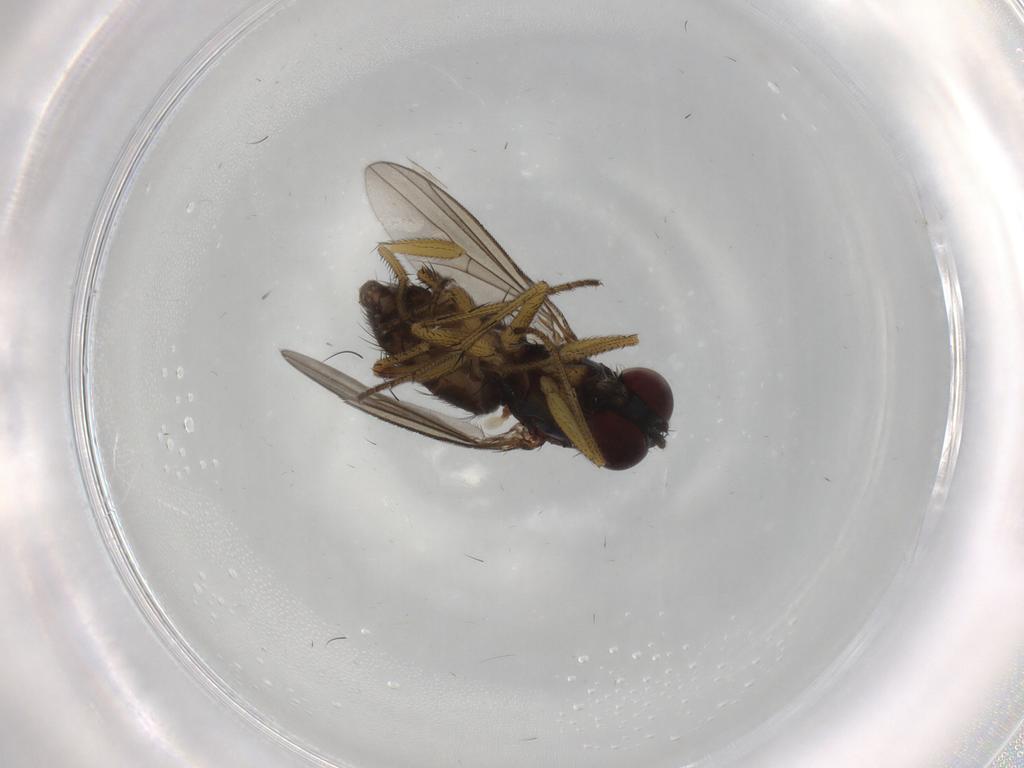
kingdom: Animalia
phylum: Arthropoda
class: Insecta
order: Diptera
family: Dolichopodidae
